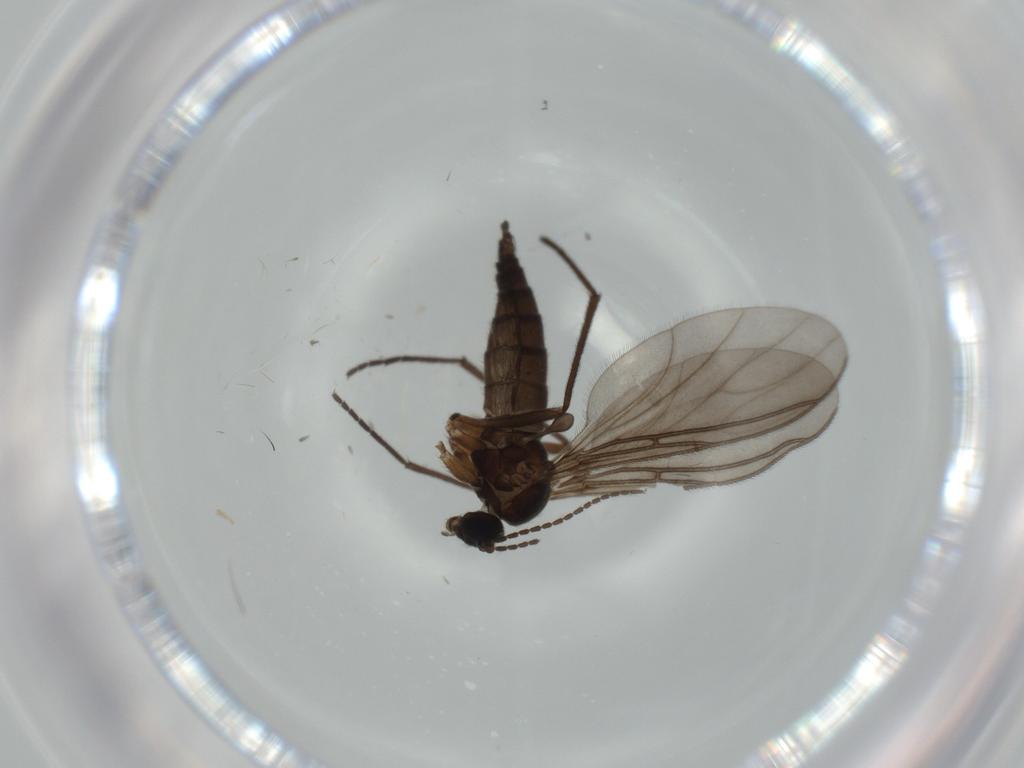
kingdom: Animalia
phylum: Arthropoda
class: Insecta
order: Diptera
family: Sciaridae
